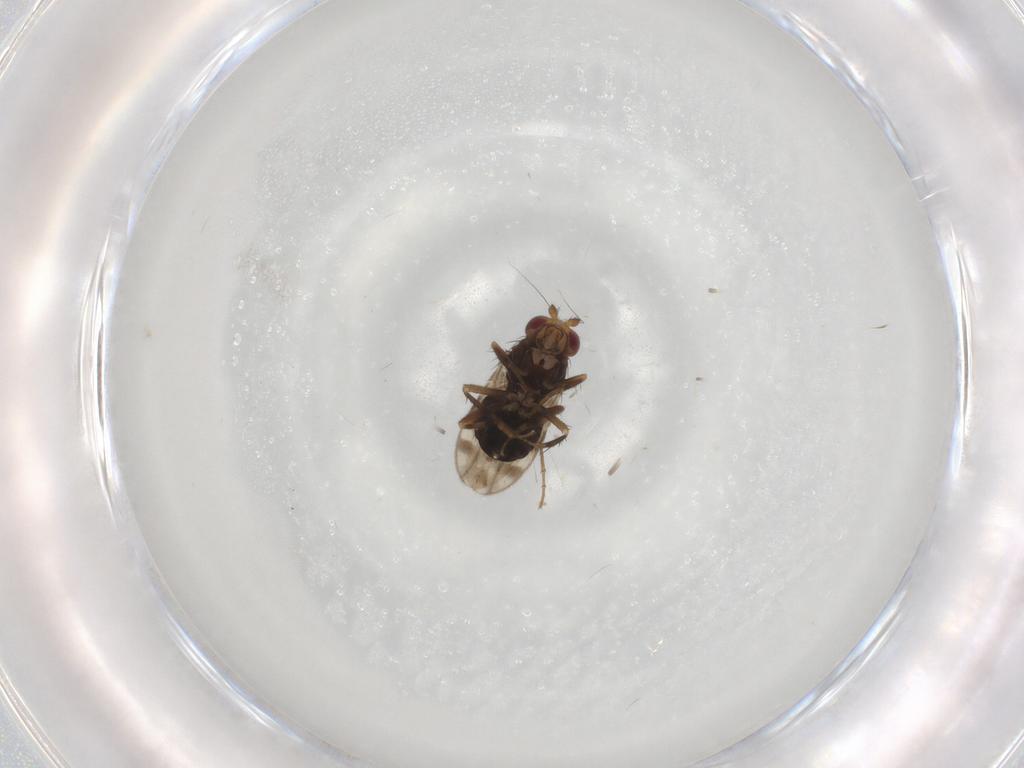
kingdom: Animalia
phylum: Arthropoda
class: Insecta
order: Diptera
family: Sphaeroceridae
